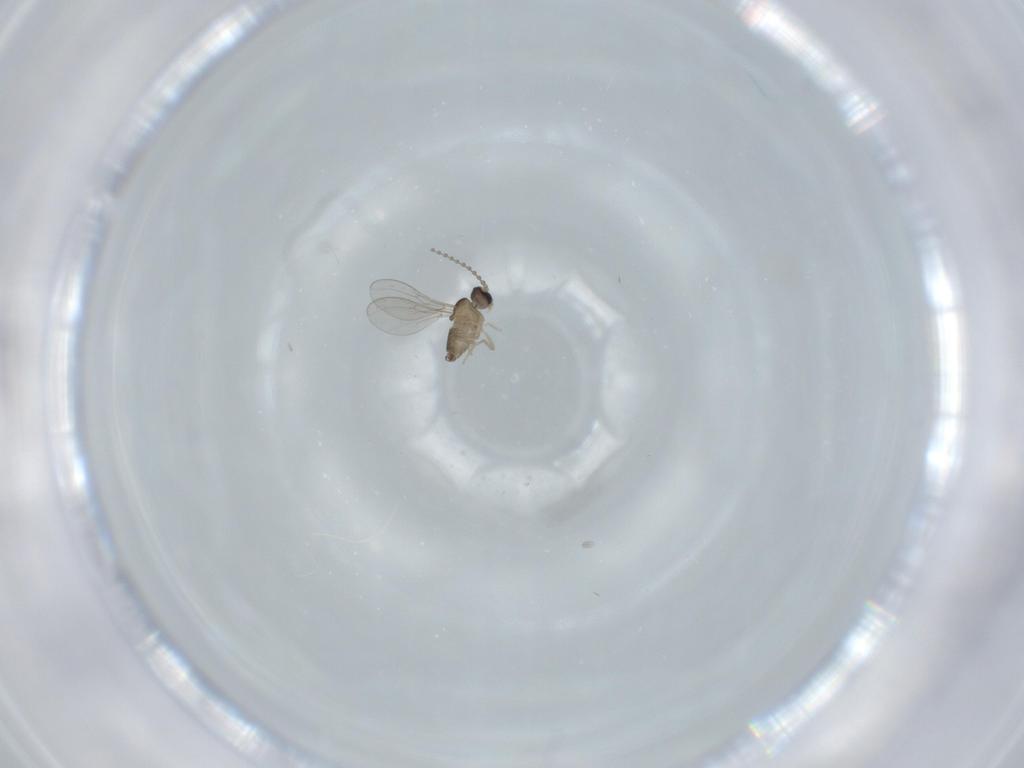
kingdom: Animalia
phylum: Arthropoda
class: Insecta
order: Diptera
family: Cecidomyiidae
